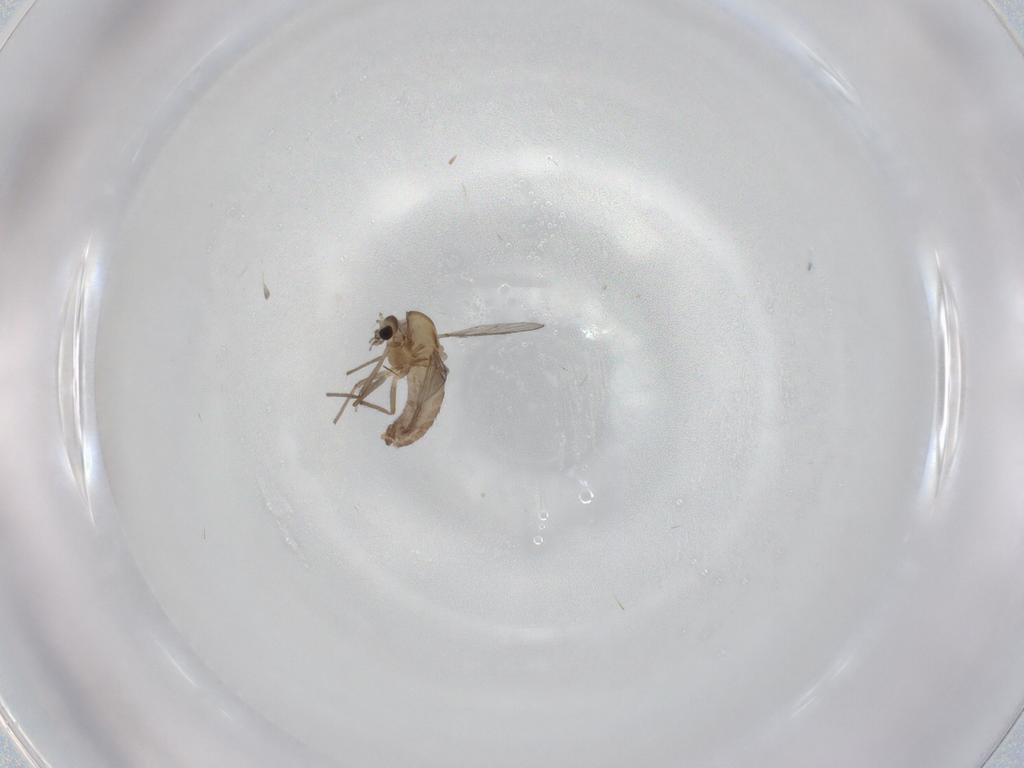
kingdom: Animalia
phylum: Arthropoda
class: Insecta
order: Diptera
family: Chironomidae
